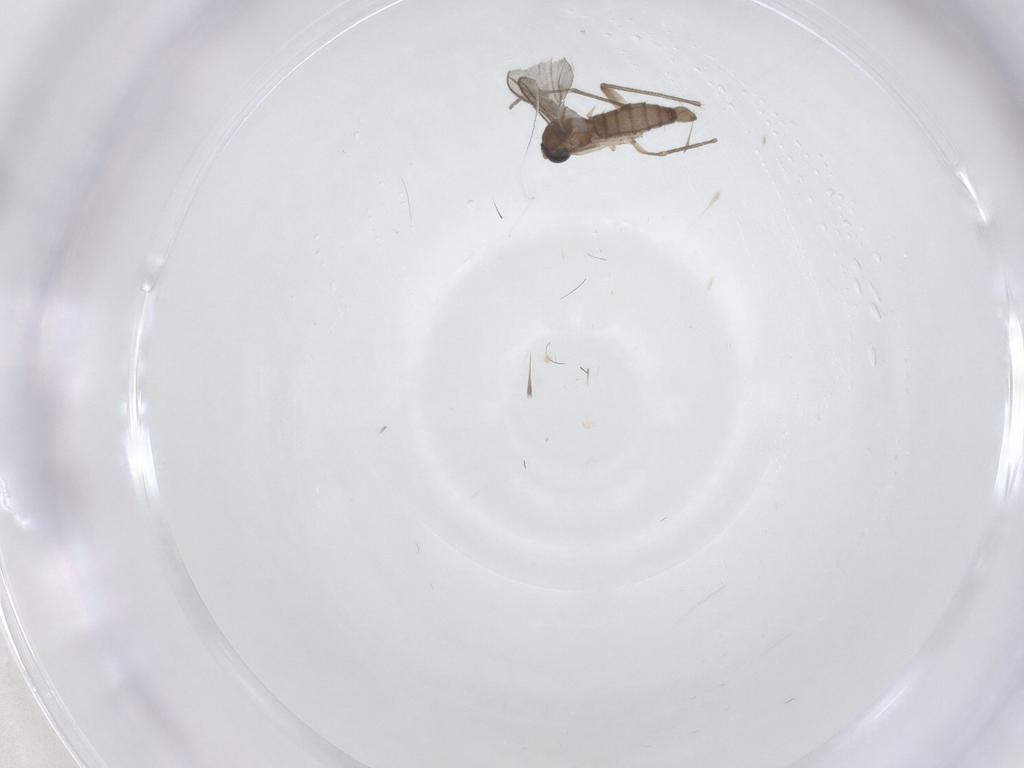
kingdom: Animalia
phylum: Arthropoda
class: Insecta
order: Diptera
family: Sciaridae
